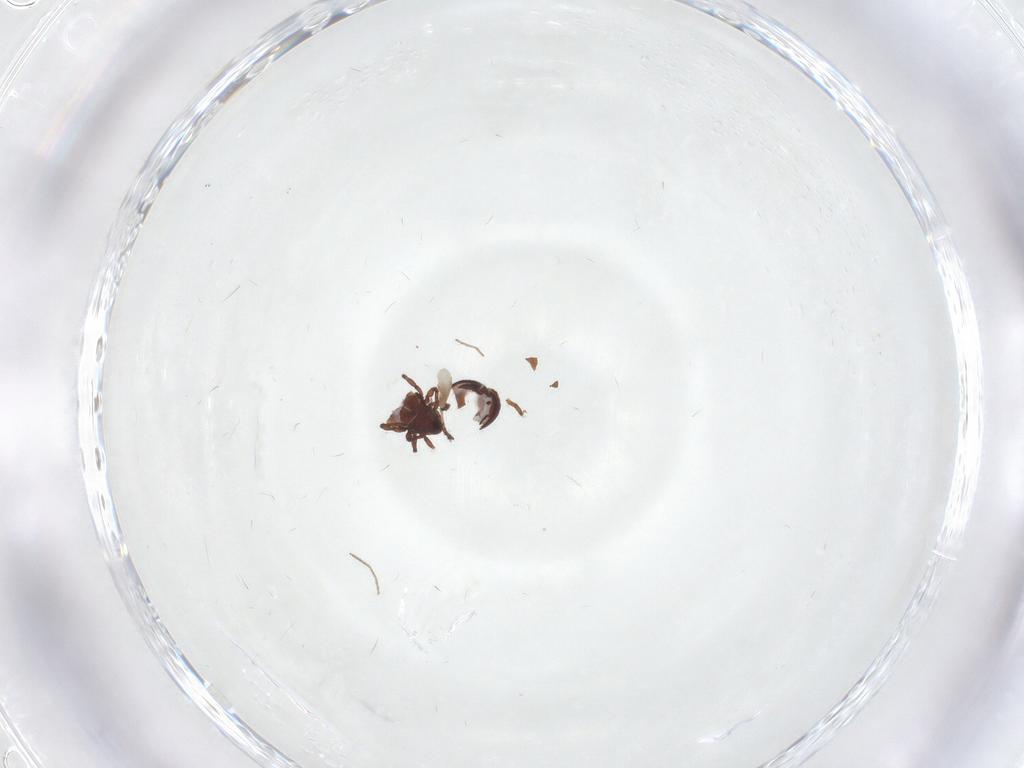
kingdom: Animalia
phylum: Arthropoda
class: Insecta
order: Diptera
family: Hybotidae
